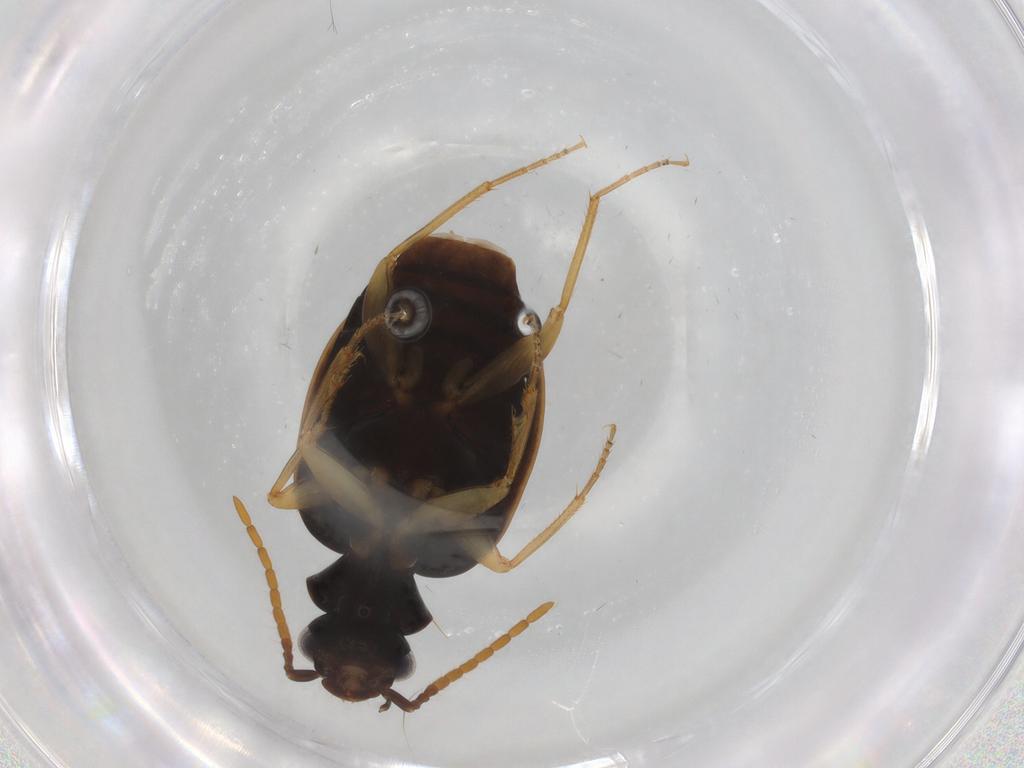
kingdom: Animalia
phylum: Arthropoda
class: Insecta
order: Coleoptera
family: Carabidae
